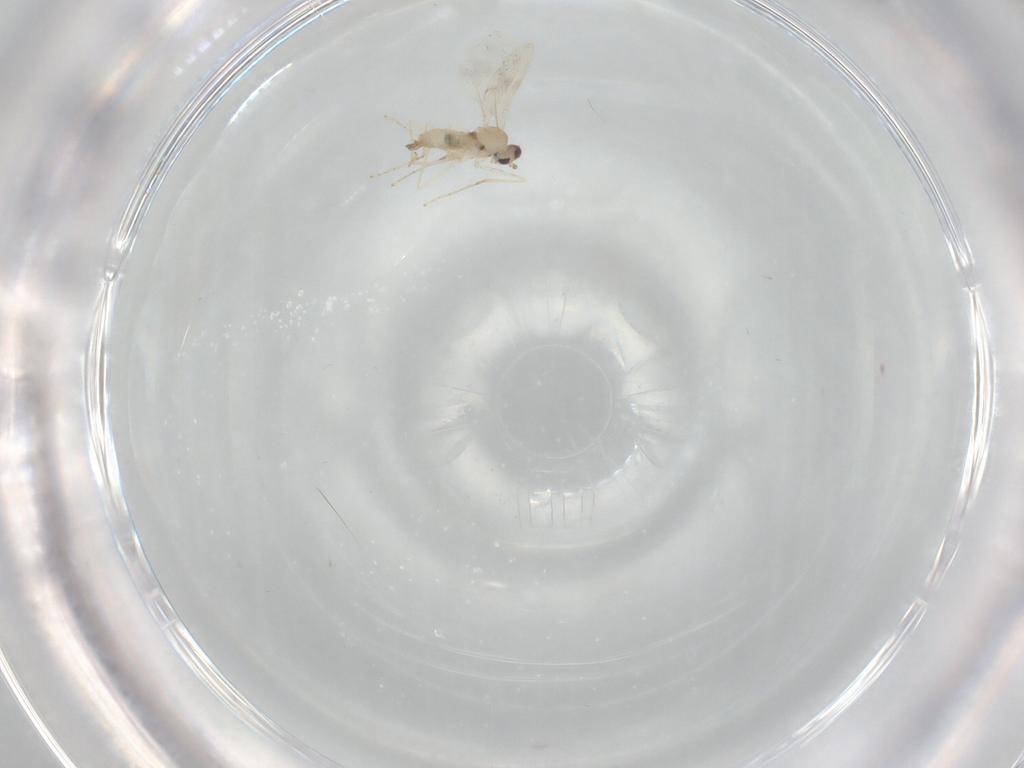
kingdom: Animalia
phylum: Arthropoda
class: Insecta
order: Diptera
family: Cecidomyiidae
